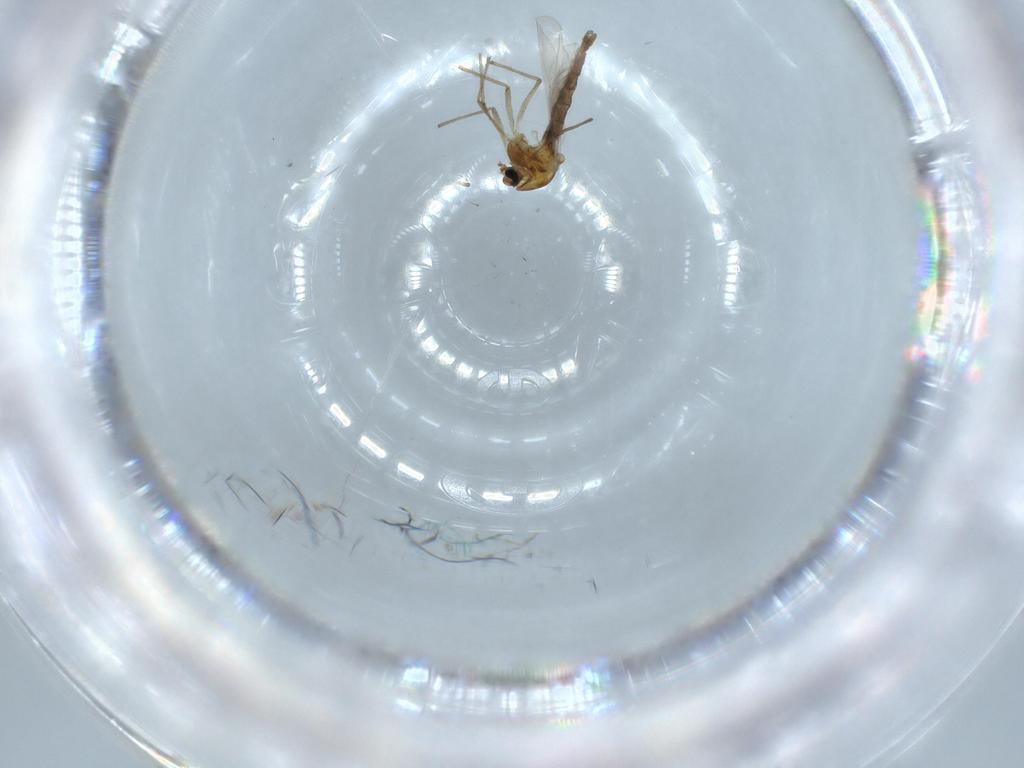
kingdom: Animalia
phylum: Arthropoda
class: Insecta
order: Diptera
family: Chironomidae
